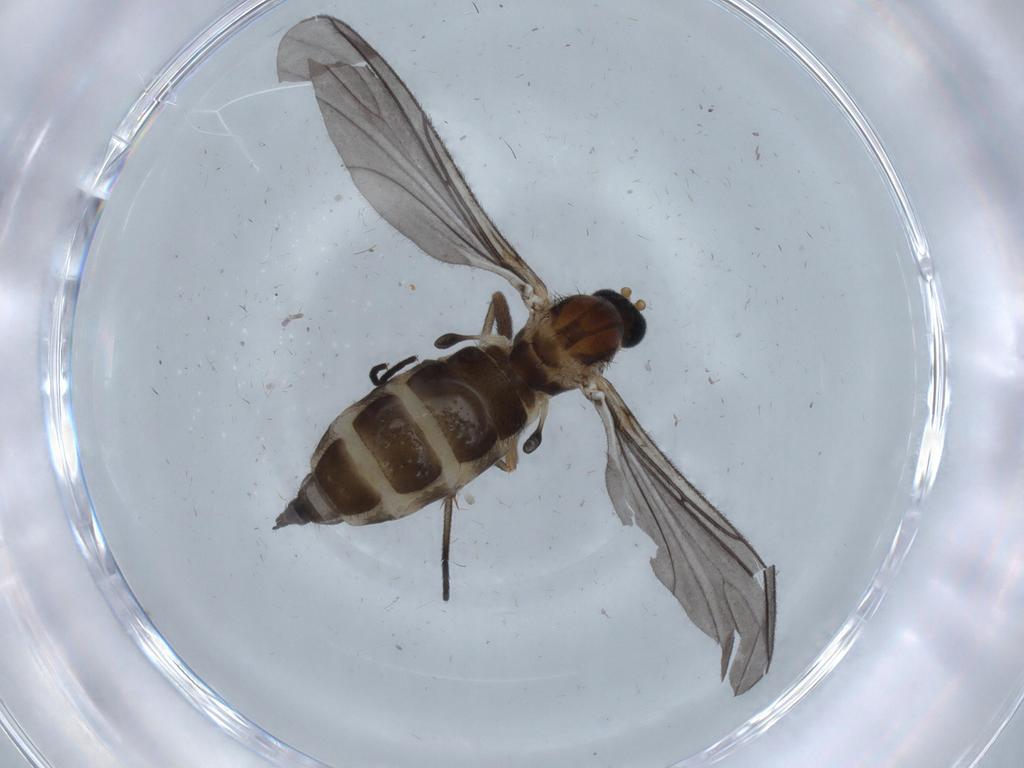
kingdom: Animalia
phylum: Arthropoda
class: Insecta
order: Diptera
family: Sciaridae
